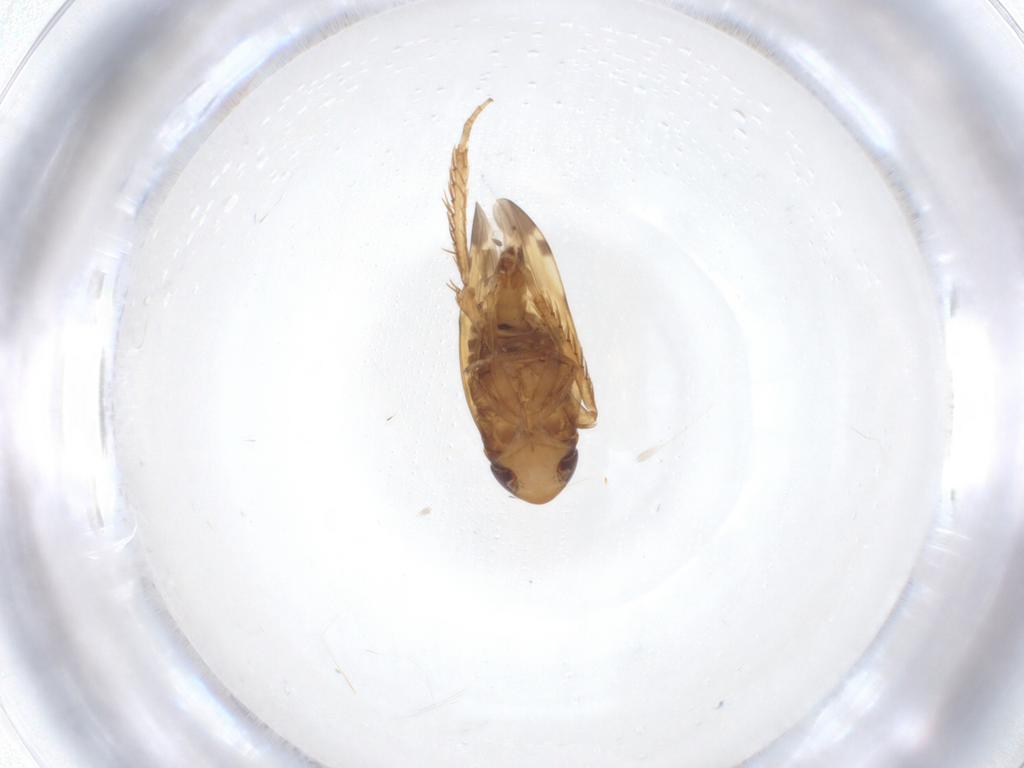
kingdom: Animalia
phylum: Arthropoda
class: Insecta
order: Hemiptera
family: Cicadellidae
